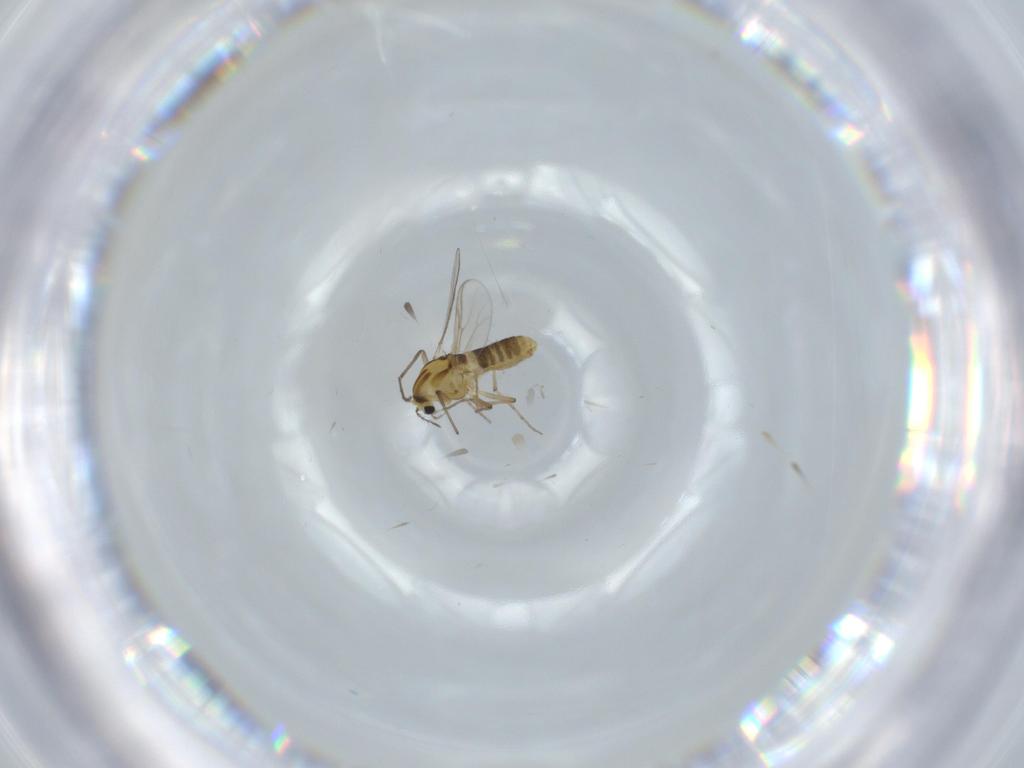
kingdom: Animalia
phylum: Arthropoda
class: Insecta
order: Diptera
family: Chironomidae
